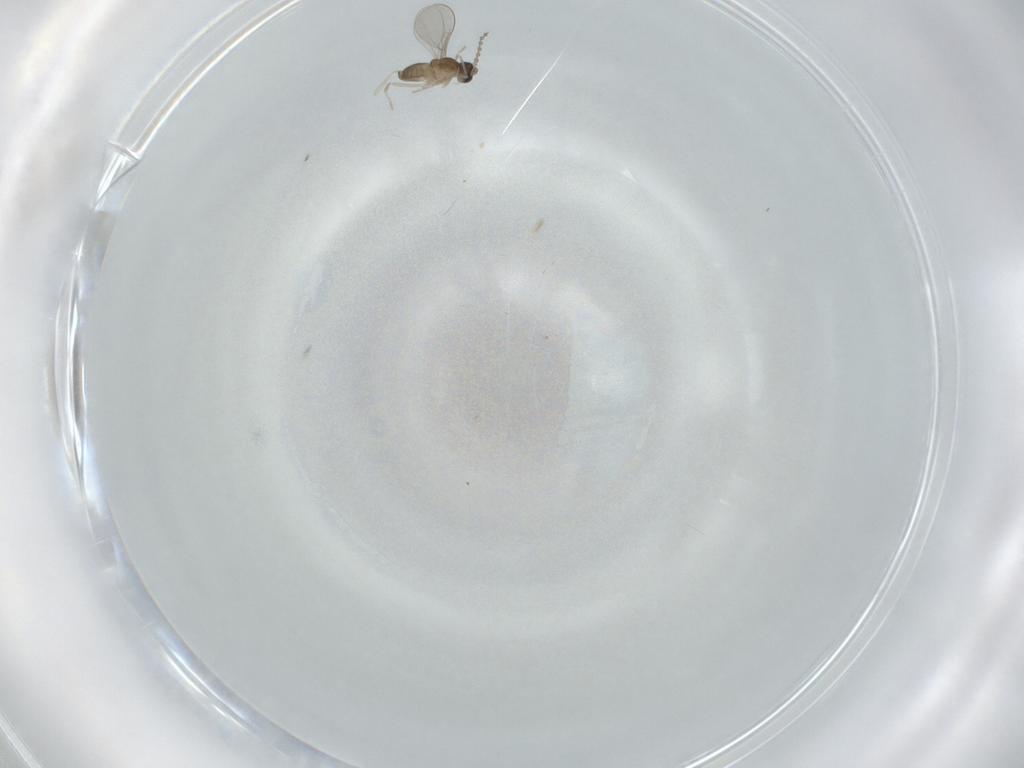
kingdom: Animalia
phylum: Arthropoda
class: Insecta
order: Diptera
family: Cecidomyiidae
